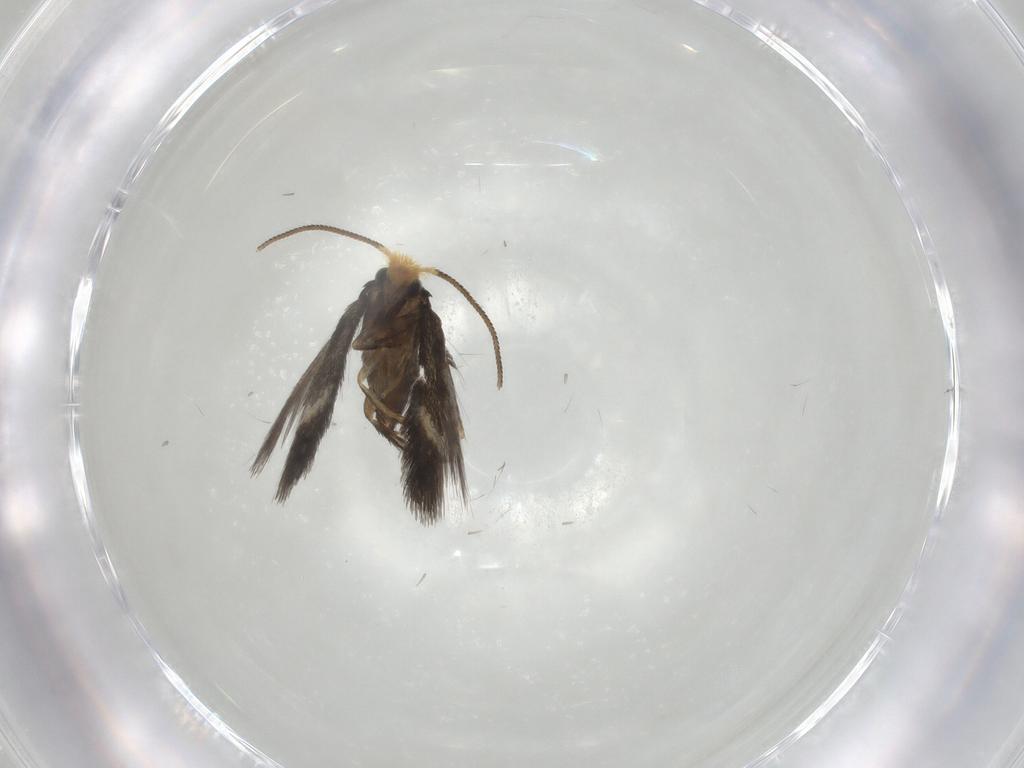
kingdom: Animalia
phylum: Arthropoda
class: Insecta
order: Lepidoptera
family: Nepticulidae
